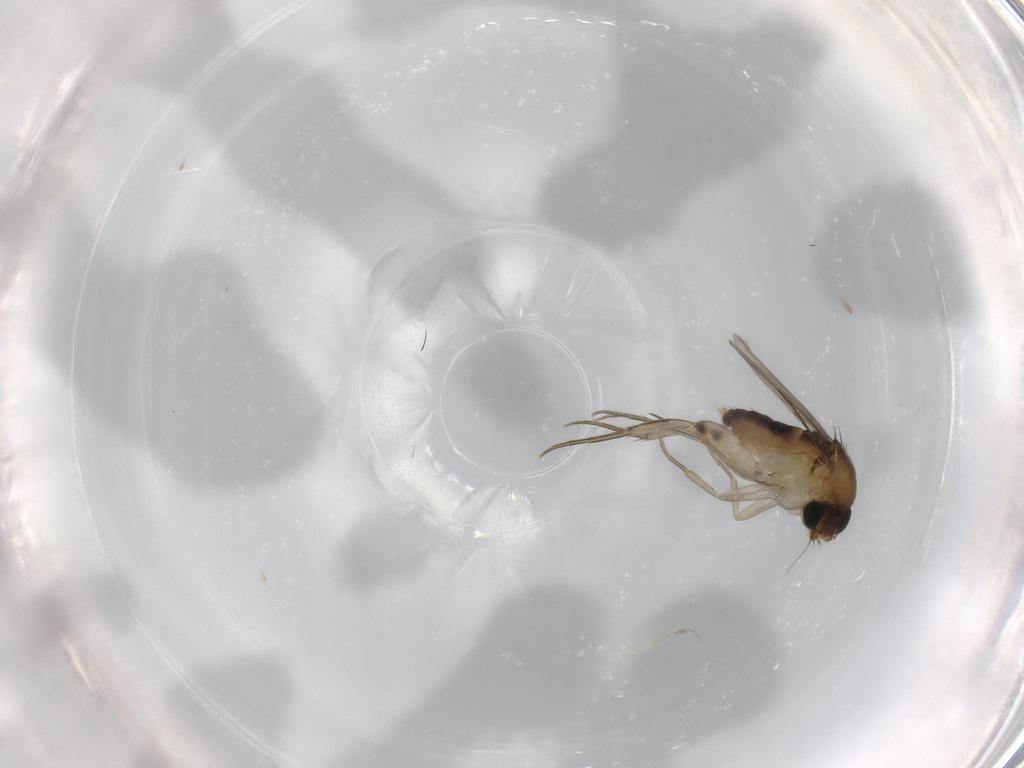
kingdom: Animalia
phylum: Arthropoda
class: Insecta
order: Diptera
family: Phoridae
